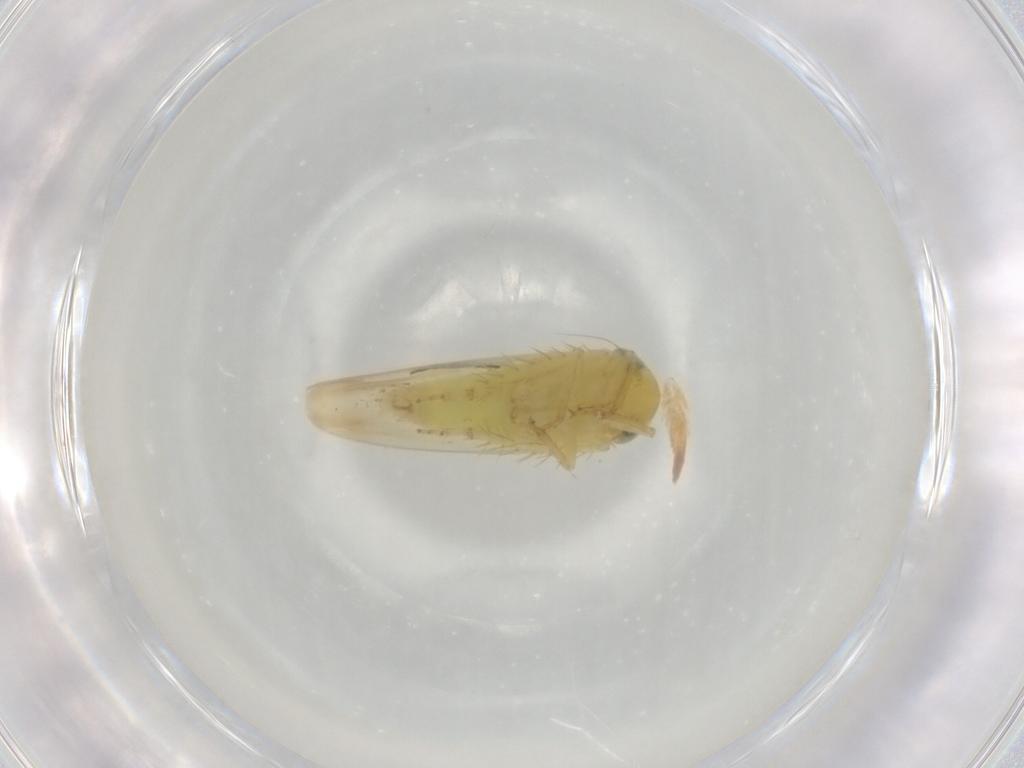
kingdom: Animalia
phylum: Arthropoda
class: Insecta
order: Hemiptera
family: Cicadellidae
